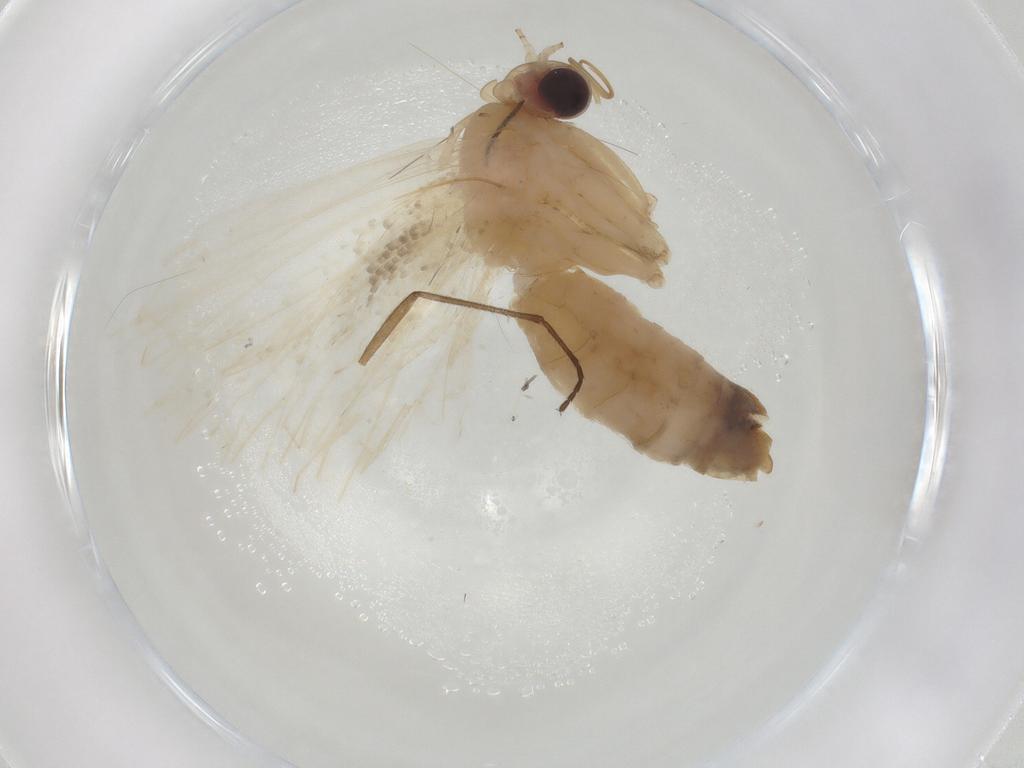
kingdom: Animalia
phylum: Arthropoda
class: Insecta
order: Lepidoptera
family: Erebidae
